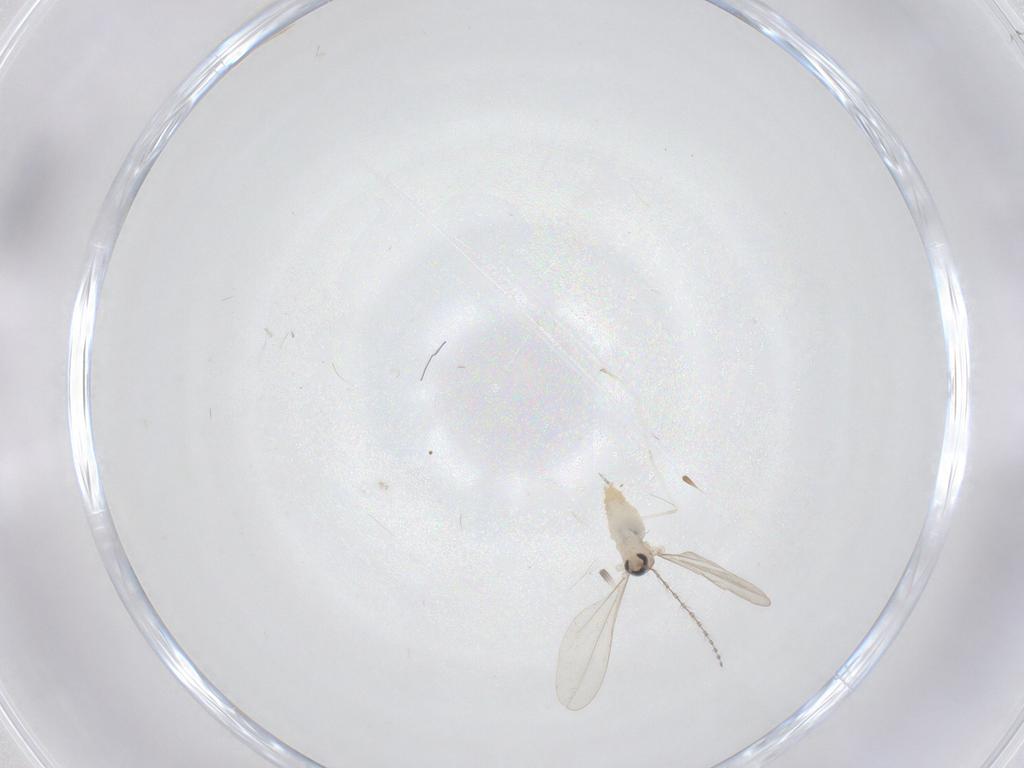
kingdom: Animalia
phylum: Arthropoda
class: Insecta
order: Diptera
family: Cecidomyiidae
